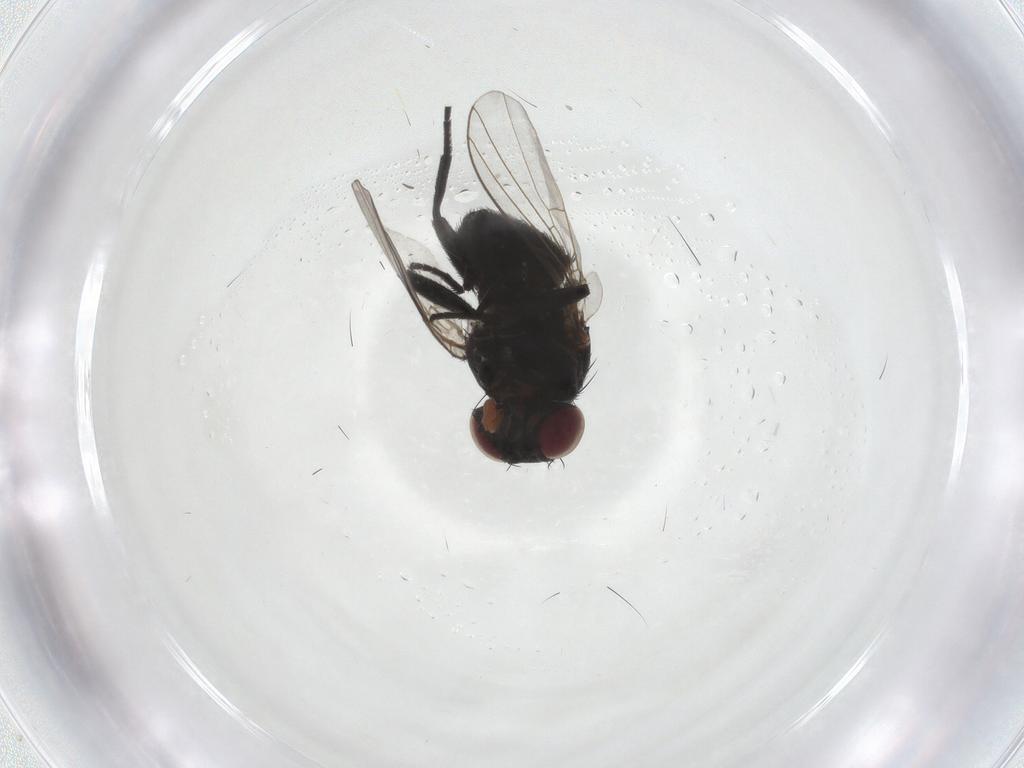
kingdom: Animalia
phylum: Arthropoda
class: Insecta
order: Diptera
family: Agromyzidae
